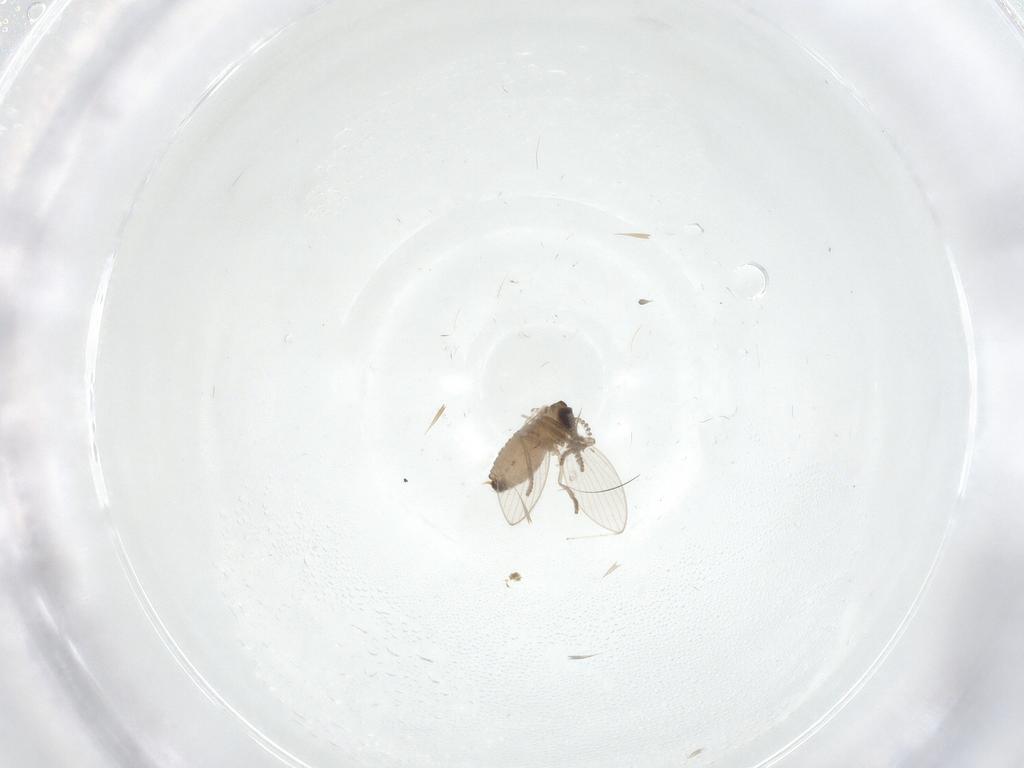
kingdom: Animalia
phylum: Arthropoda
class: Insecta
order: Diptera
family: Psychodidae
